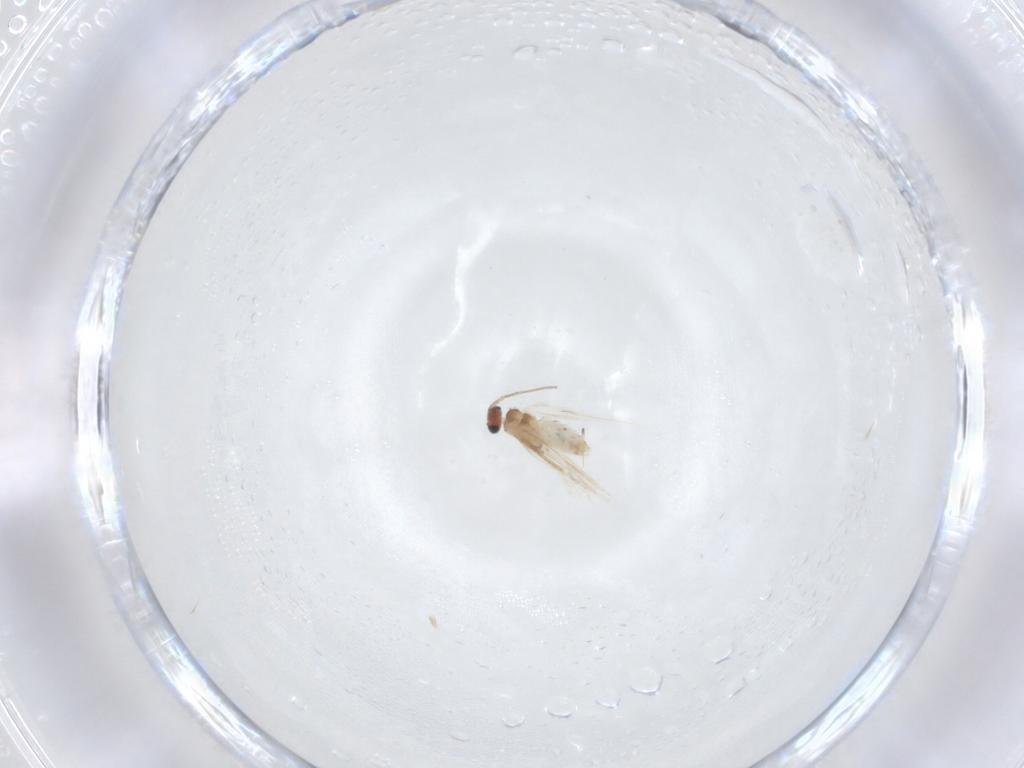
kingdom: Animalia
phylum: Arthropoda
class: Insecta
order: Lepidoptera
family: Nepticulidae
